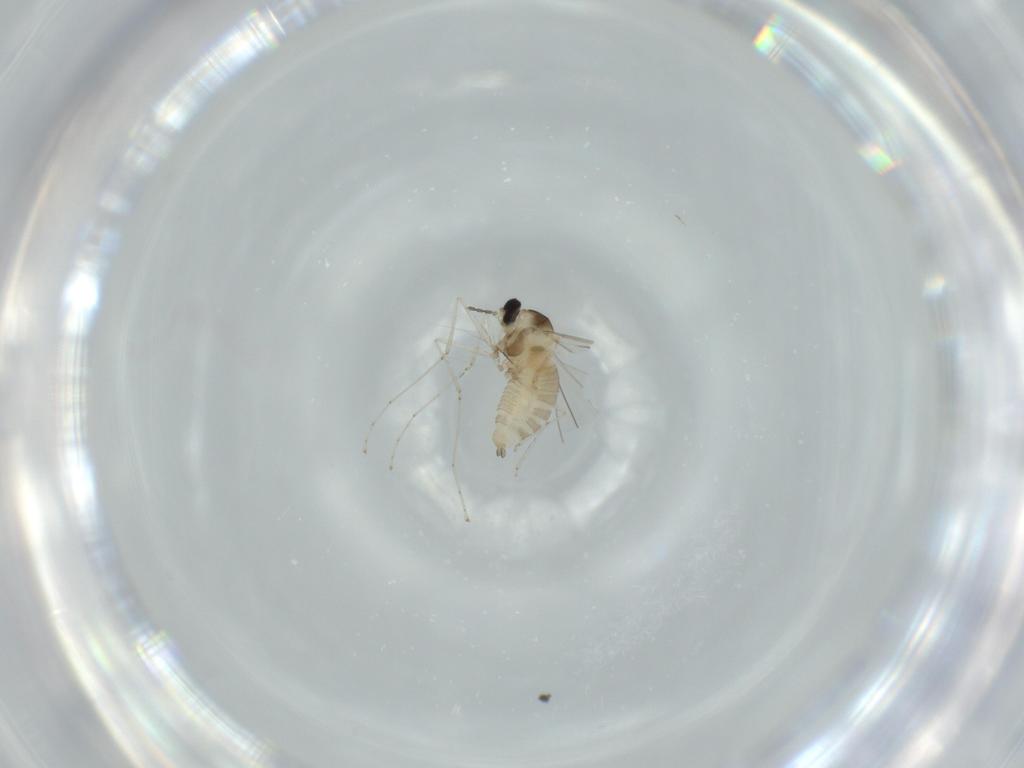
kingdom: Animalia
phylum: Arthropoda
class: Insecta
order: Diptera
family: Cecidomyiidae
